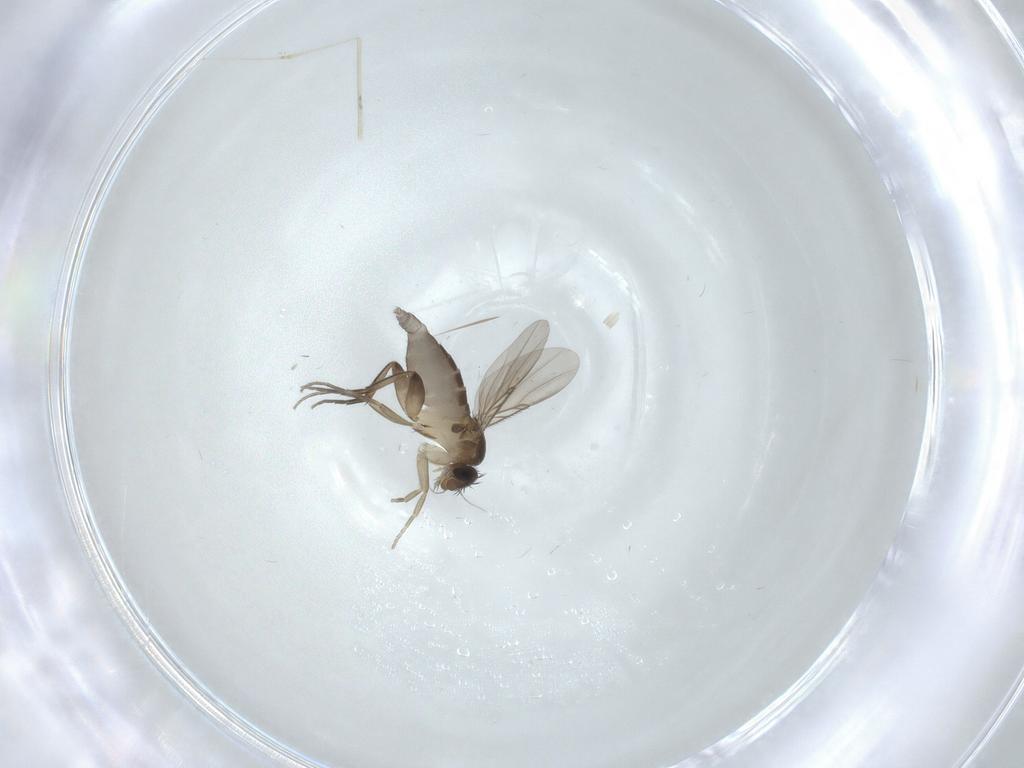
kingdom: Animalia
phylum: Arthropoda
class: Insecta
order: Diptera
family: Phoridae
